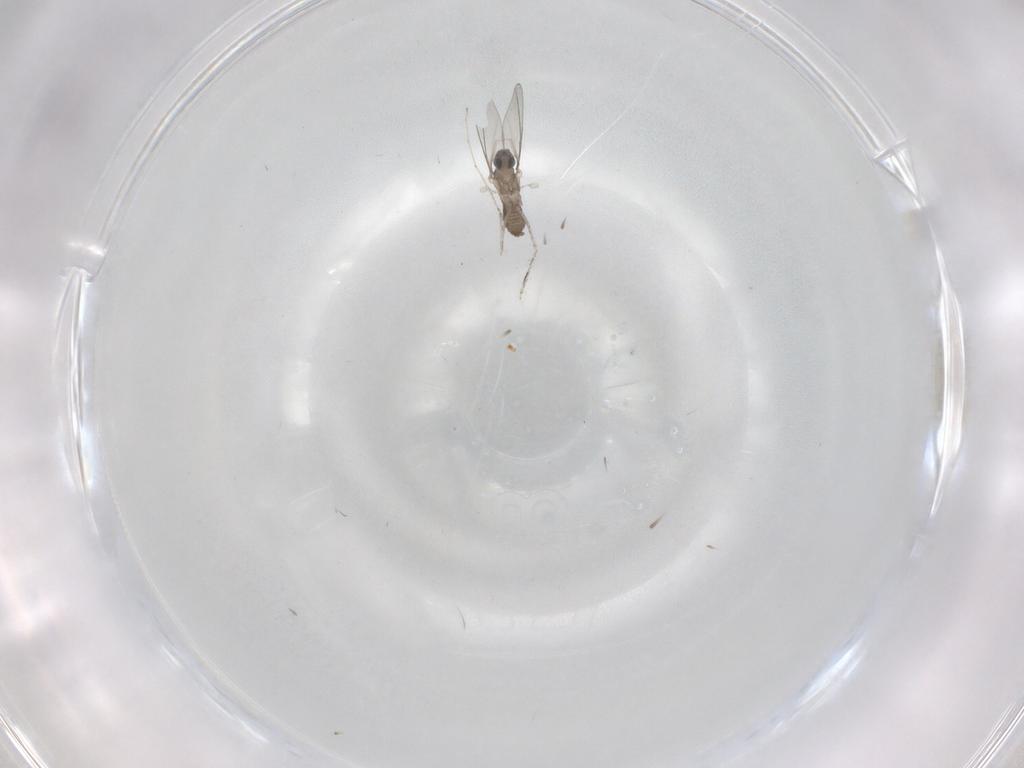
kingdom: Animalia
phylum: Arthropoda
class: Insecta
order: Diptera
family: Cecidomyiidae
